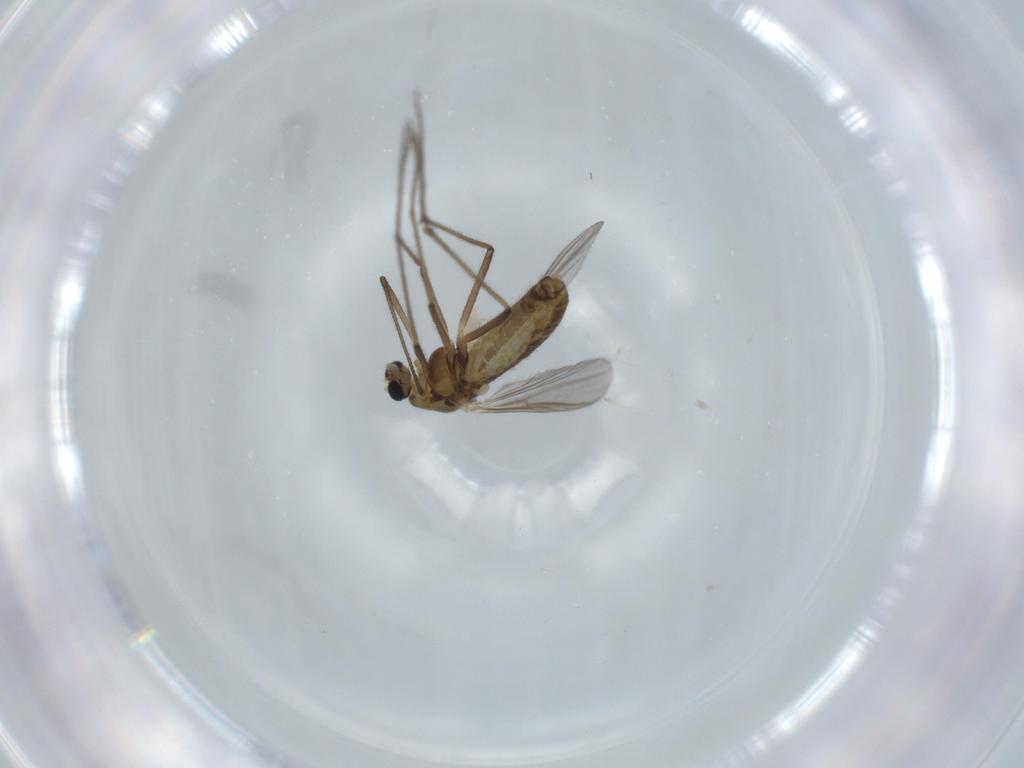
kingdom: Animalia
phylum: Arthropoda
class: Insecta
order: Diptera
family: Chironomidae
